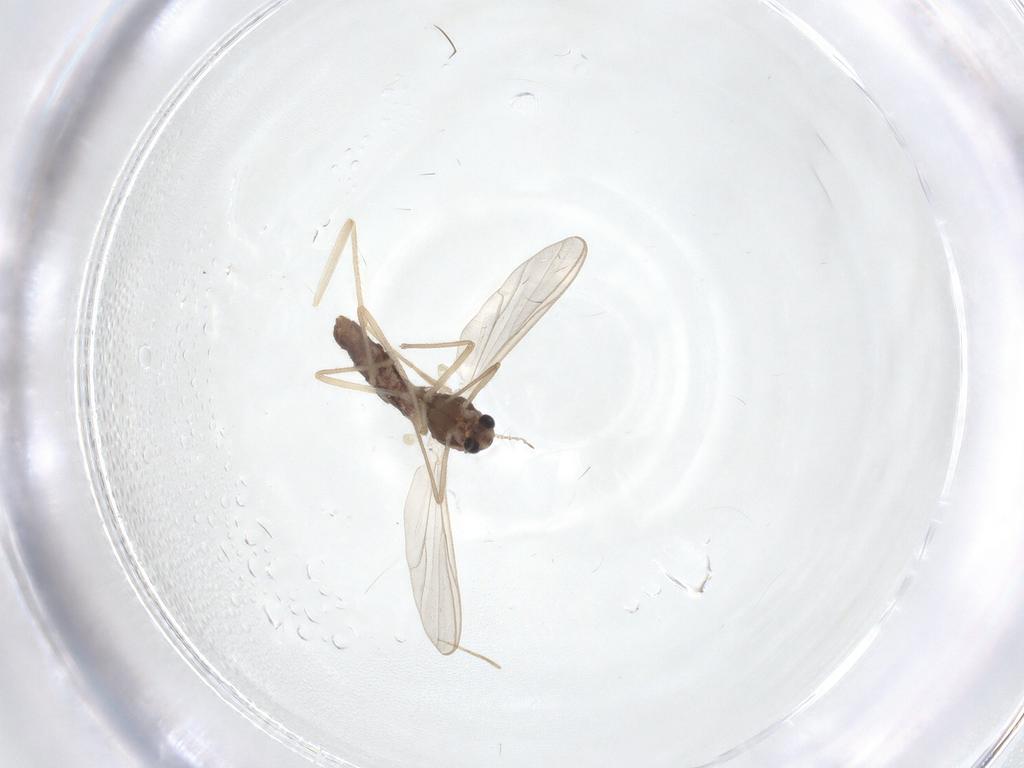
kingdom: Animalia
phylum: Arthropoda
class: Insecta
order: Diptera
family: Chironomidae
